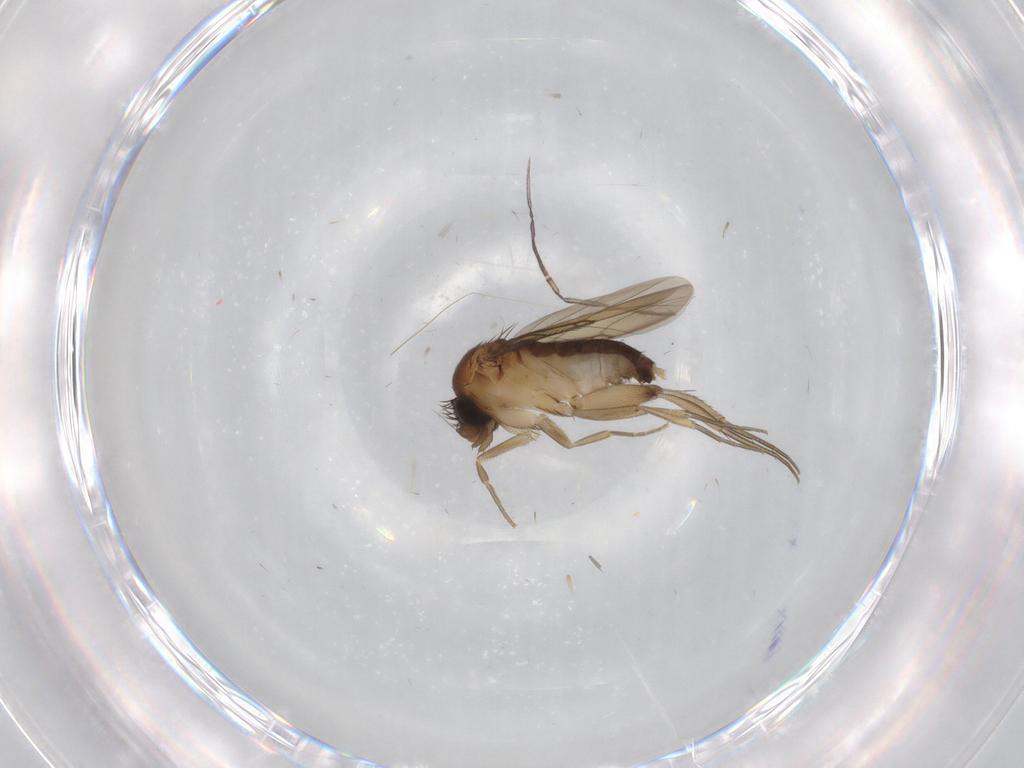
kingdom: Animalia
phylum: Arthropoda
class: Insecta
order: Diptera
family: Phoridae
